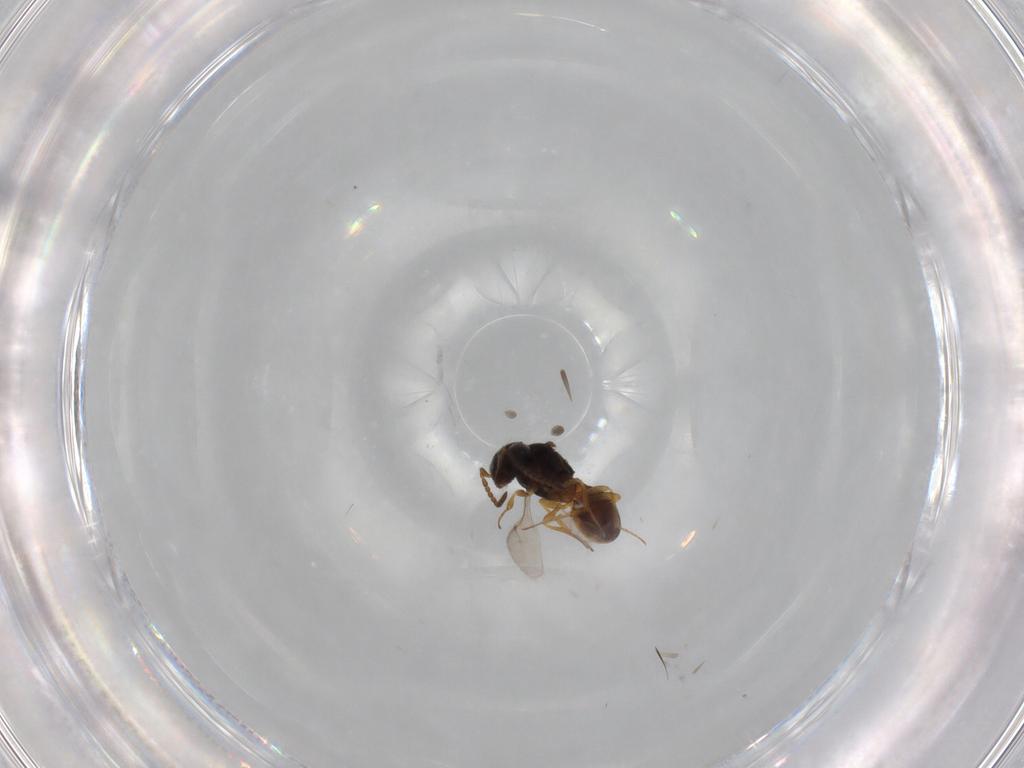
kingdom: Animalia
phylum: Arthropoda
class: Insecta
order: Hymenoptera
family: Scelionidae
